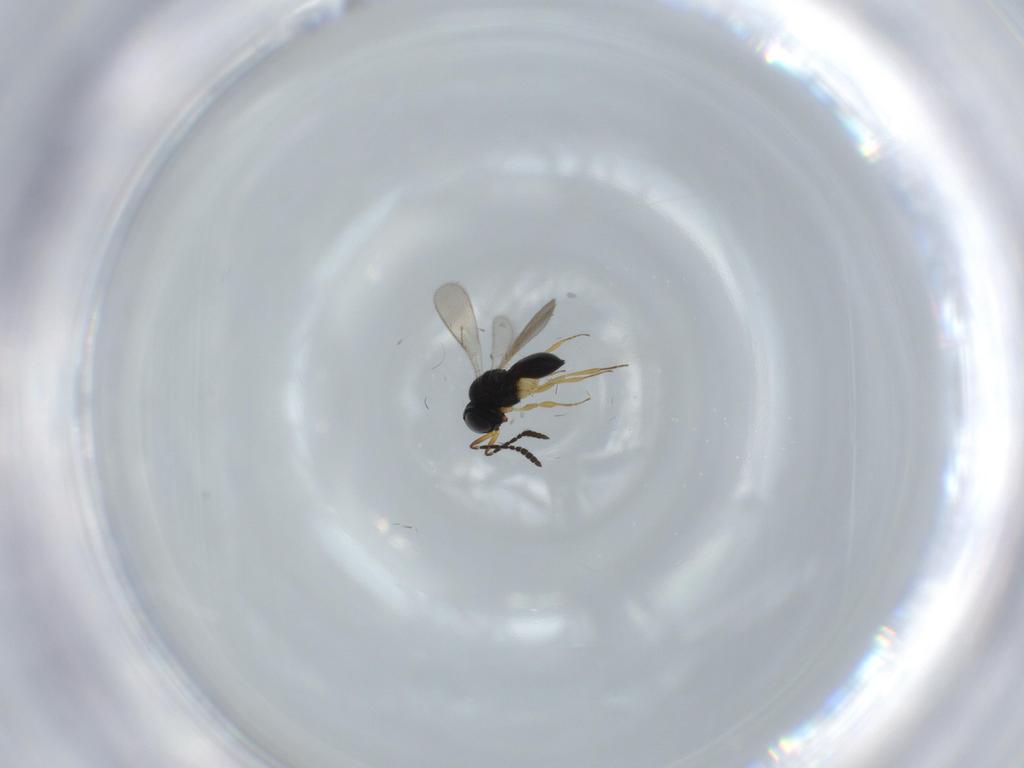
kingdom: Animalia
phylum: Arthropoda
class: Insecta
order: Hymenoptera
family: Scelionidae
